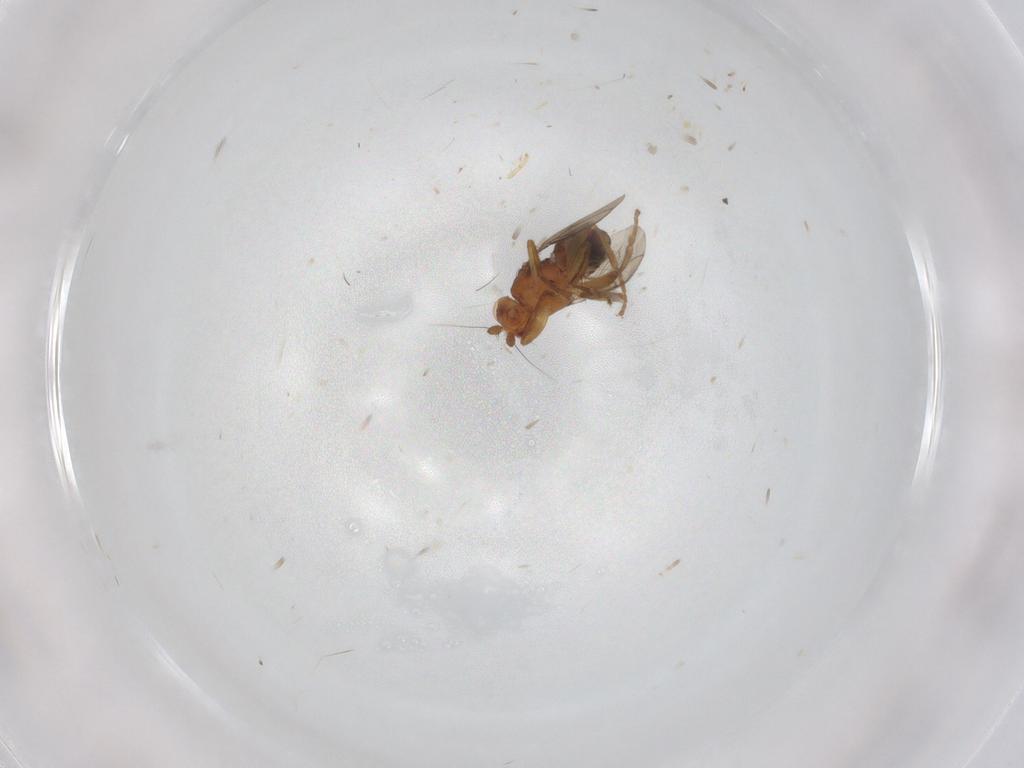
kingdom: Animalia
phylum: Arthropoda
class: Insecta
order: Diptera
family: Sphaeroceridae
